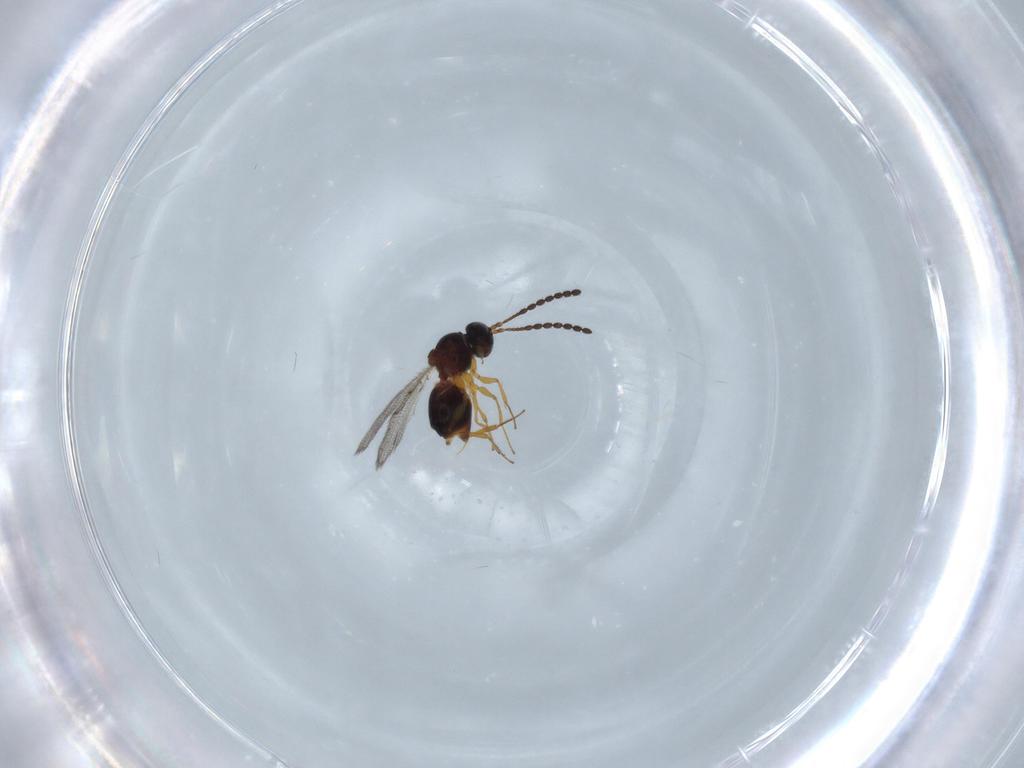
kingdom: Animalia
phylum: Arthropoda
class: Insecta
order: Hymenoptera
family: Figitidae
